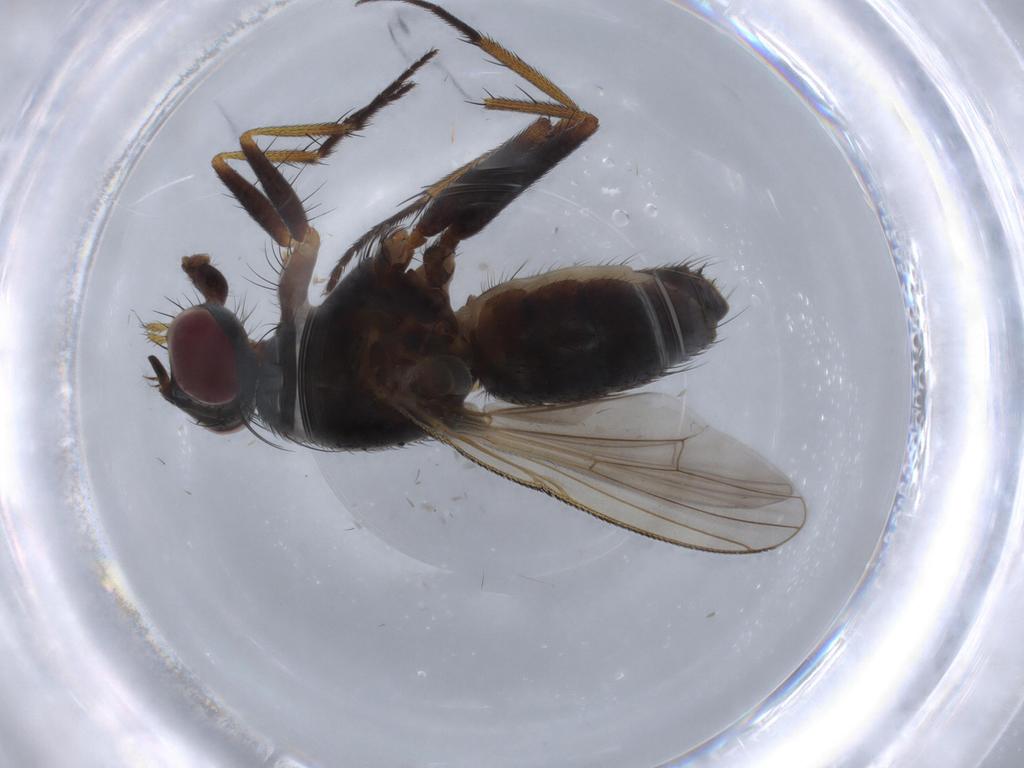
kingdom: Animalia
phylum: Arthropoda
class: Insecta
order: Diptera
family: Muscidae
